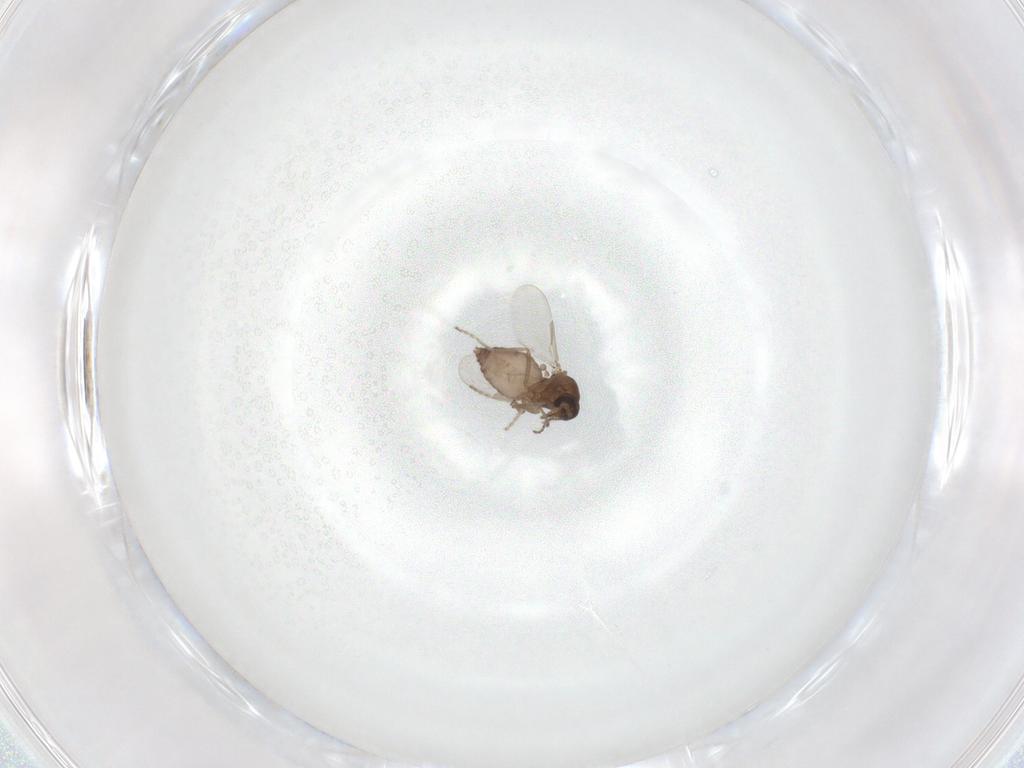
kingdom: Animalia
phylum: Arthropoda
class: Insecta
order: Diptera
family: Ceratopogonidae
